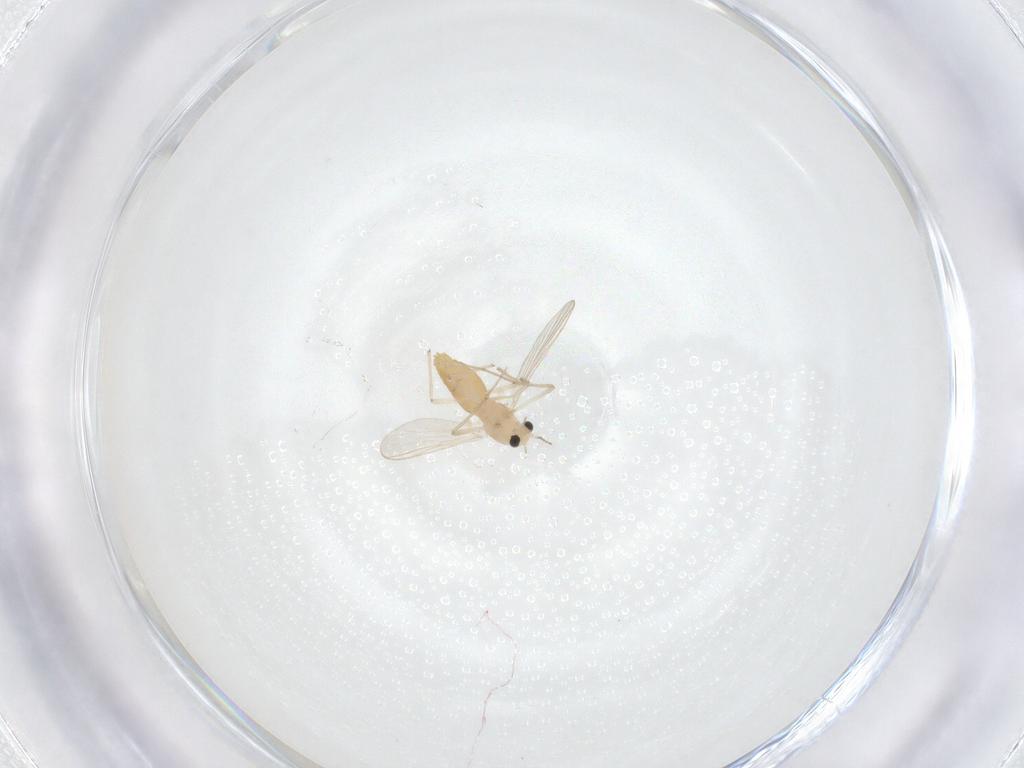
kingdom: Animalia
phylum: Arthropoda
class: Insecta
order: Diptera
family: Chironomidae
